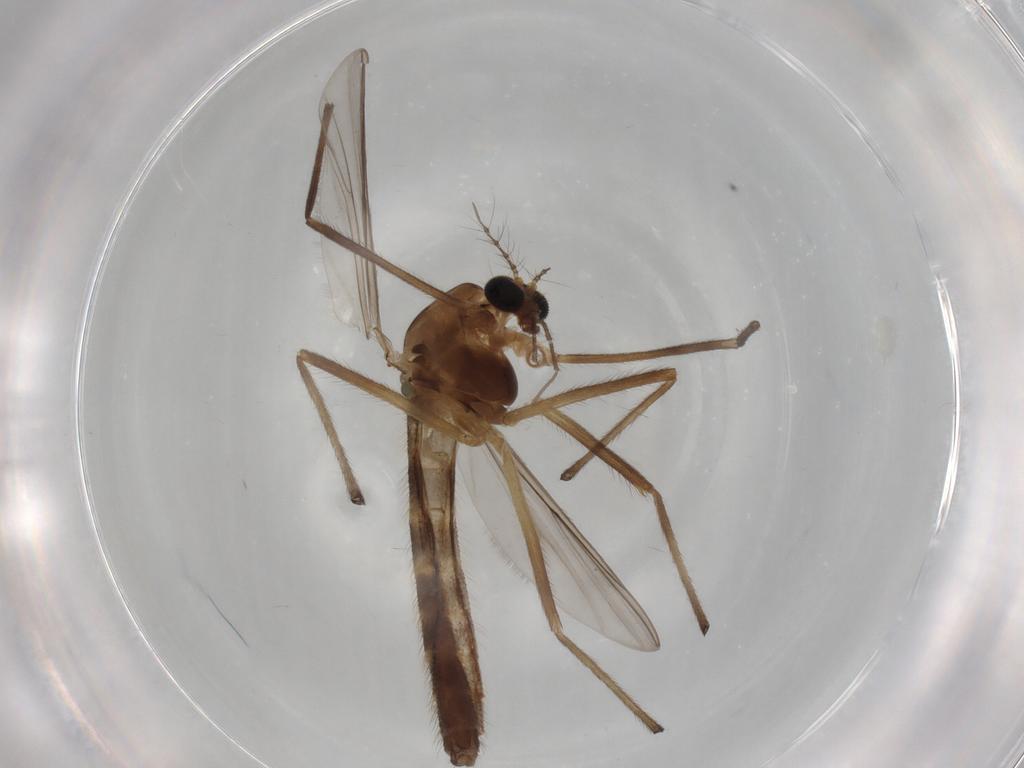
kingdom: Animalia
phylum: Arthropoda
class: Insecta
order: Diptera
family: Chironomidae
